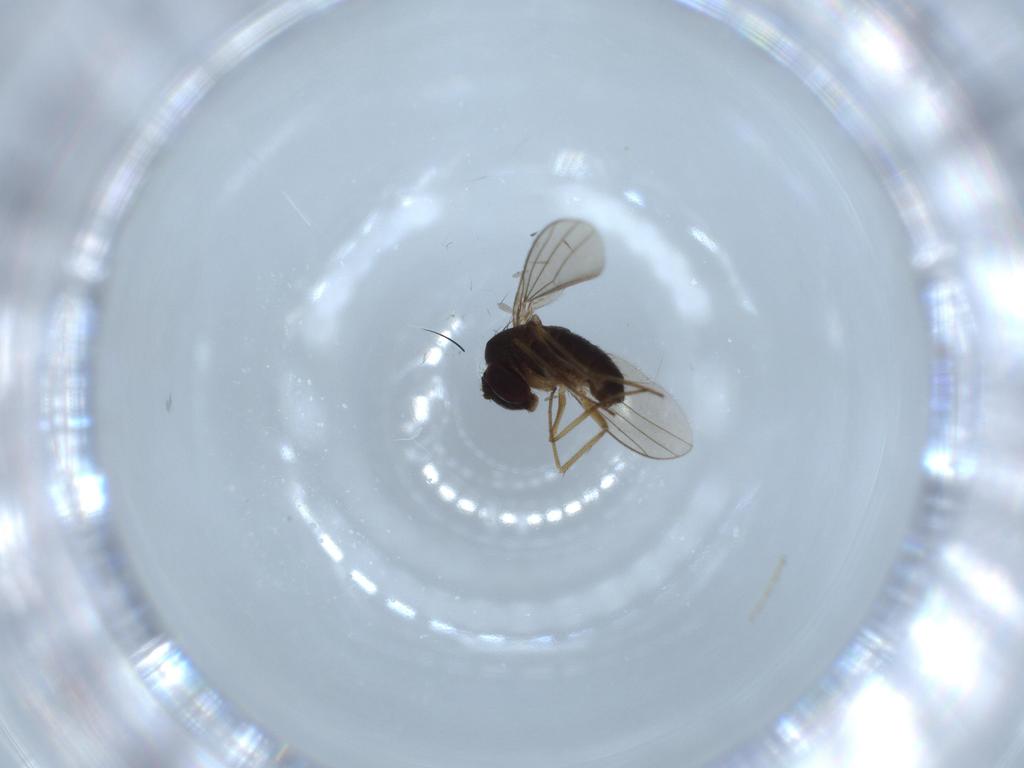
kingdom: Animalia
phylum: Arthropoda
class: Insecta
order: Diptera
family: Dolichopodidae
